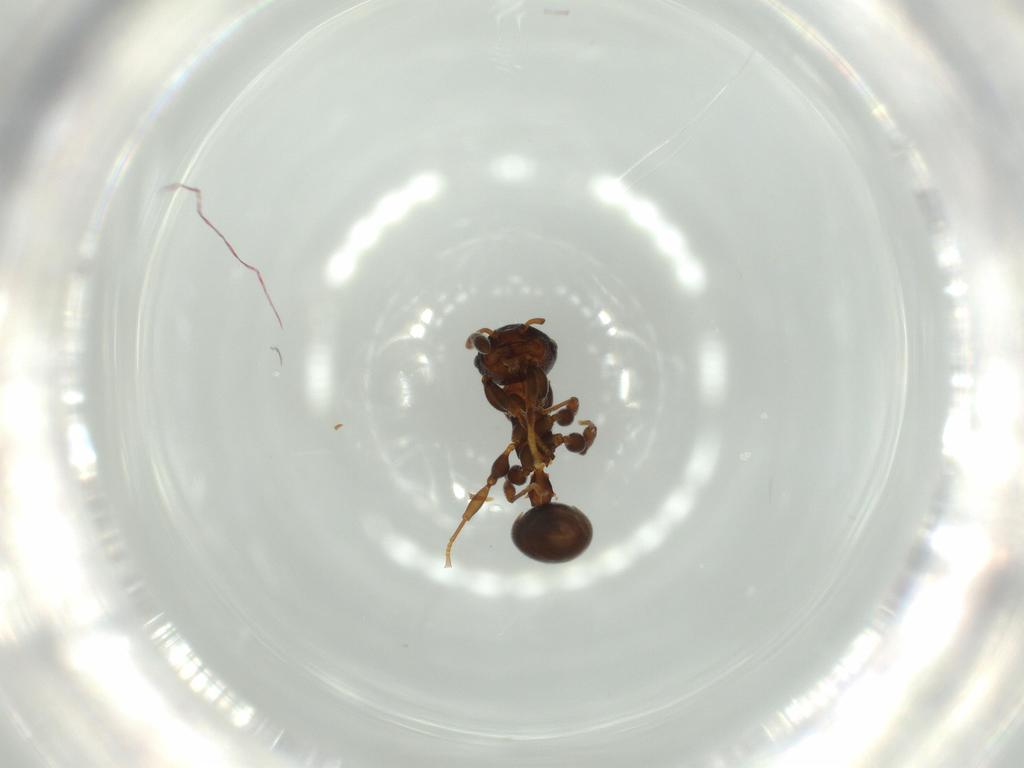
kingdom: Animalia
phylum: Arthropoda
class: Insecta
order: Hymenoptera
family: Formicidae
